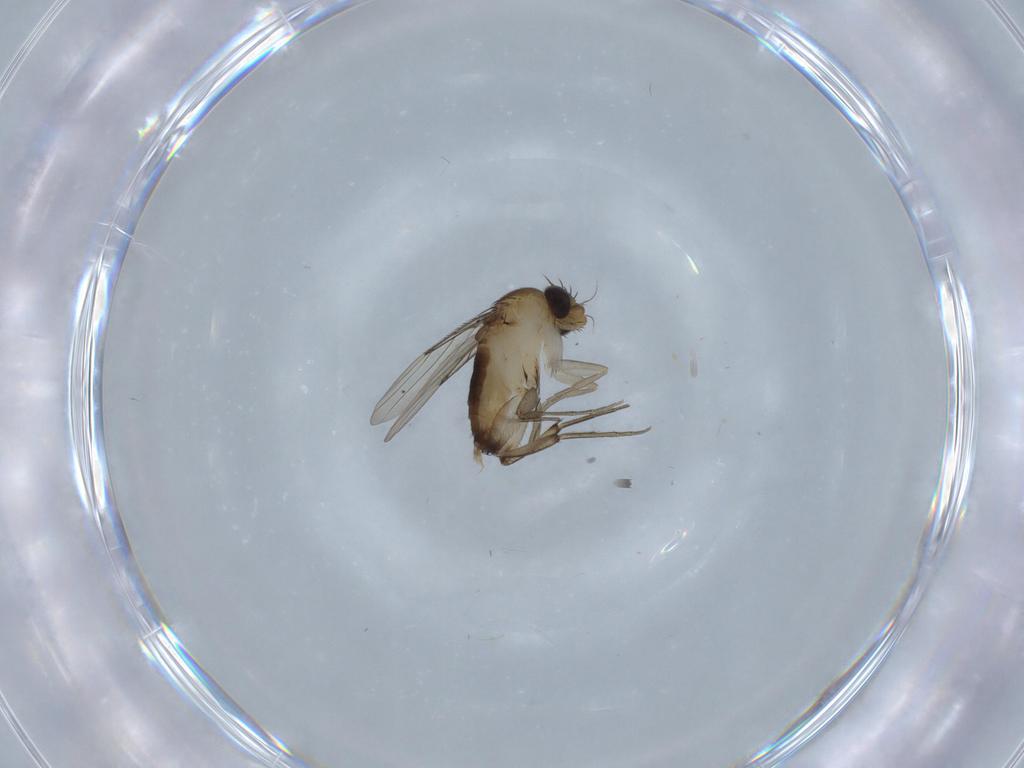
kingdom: Animalia
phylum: Arthropoda
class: Insecta
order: Diptera
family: Phoridae
